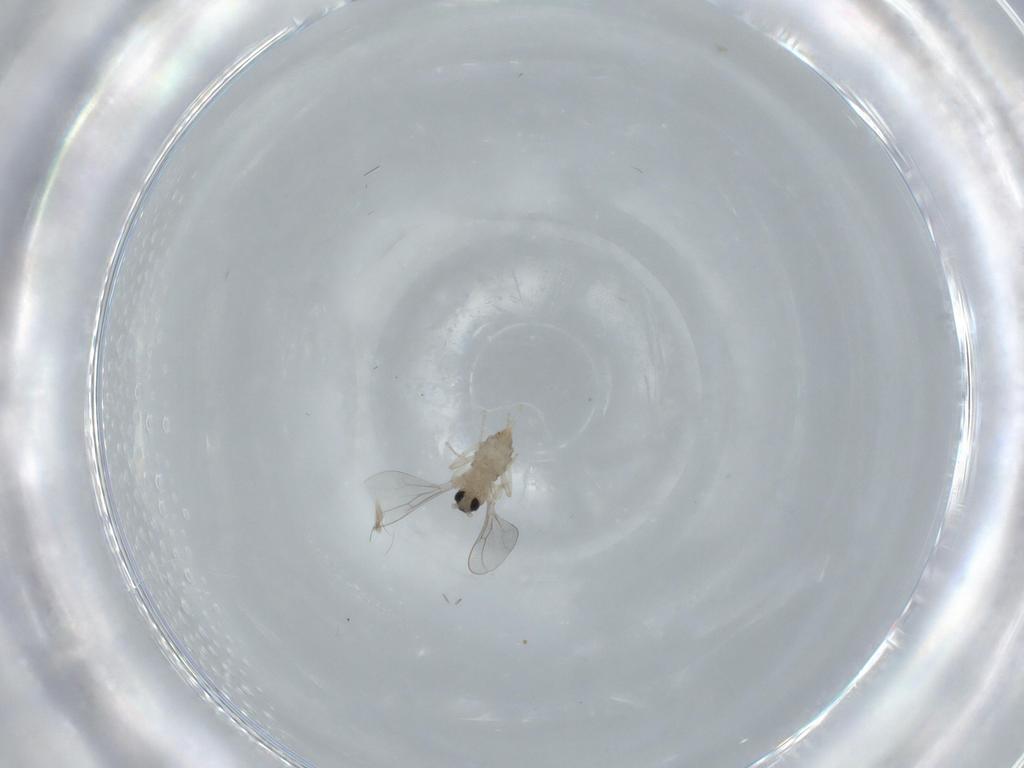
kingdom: Animalia
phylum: Arthropoda
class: Insecta
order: Diptera
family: Cecidomyiidae
